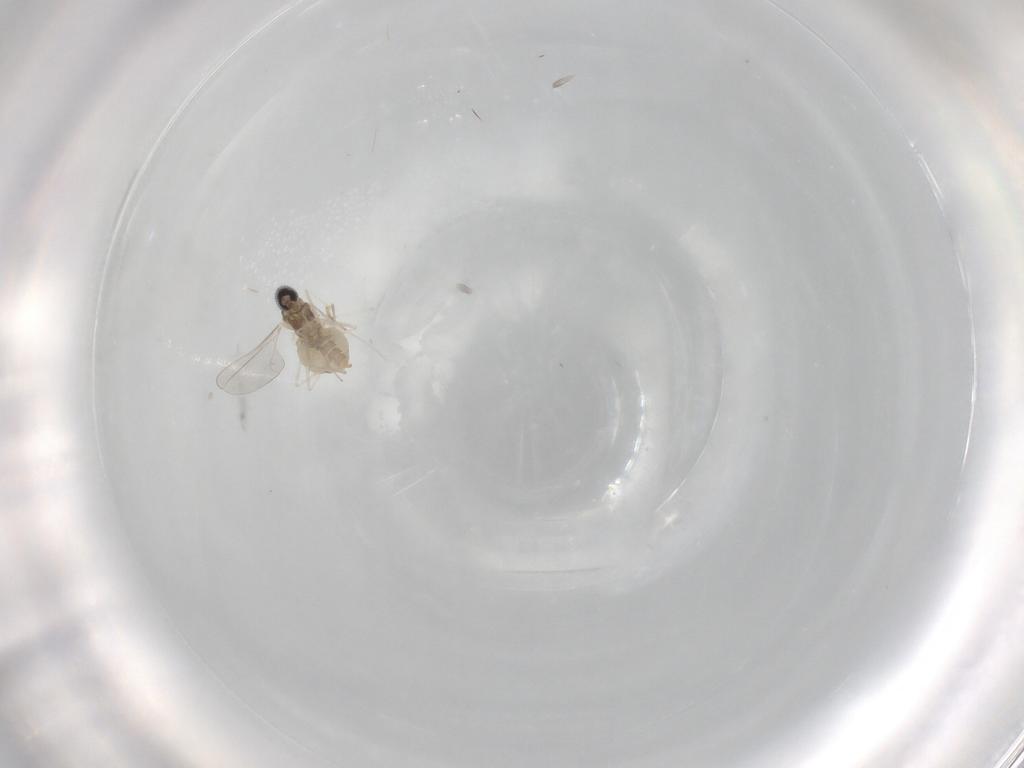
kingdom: Animalia
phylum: Arthropoda
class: Insecta
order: Diptera
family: Cecidomyiidae
